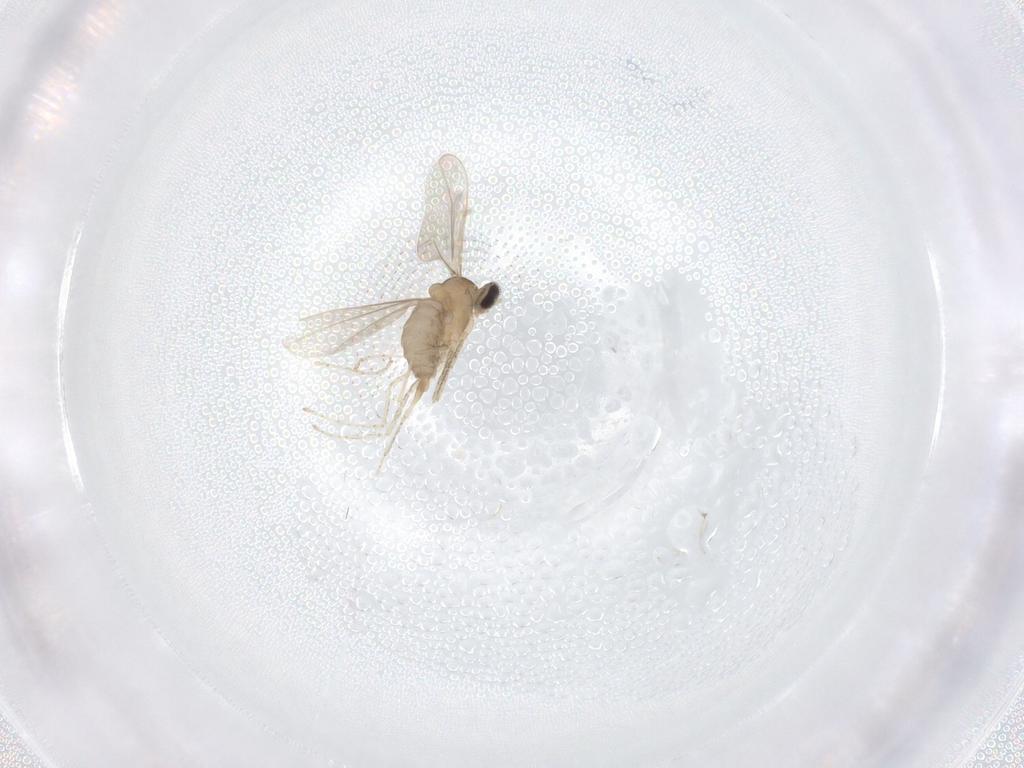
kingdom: Animalia
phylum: Arthropoda
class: Insecta
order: Diptera
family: Cecidomyiidae
